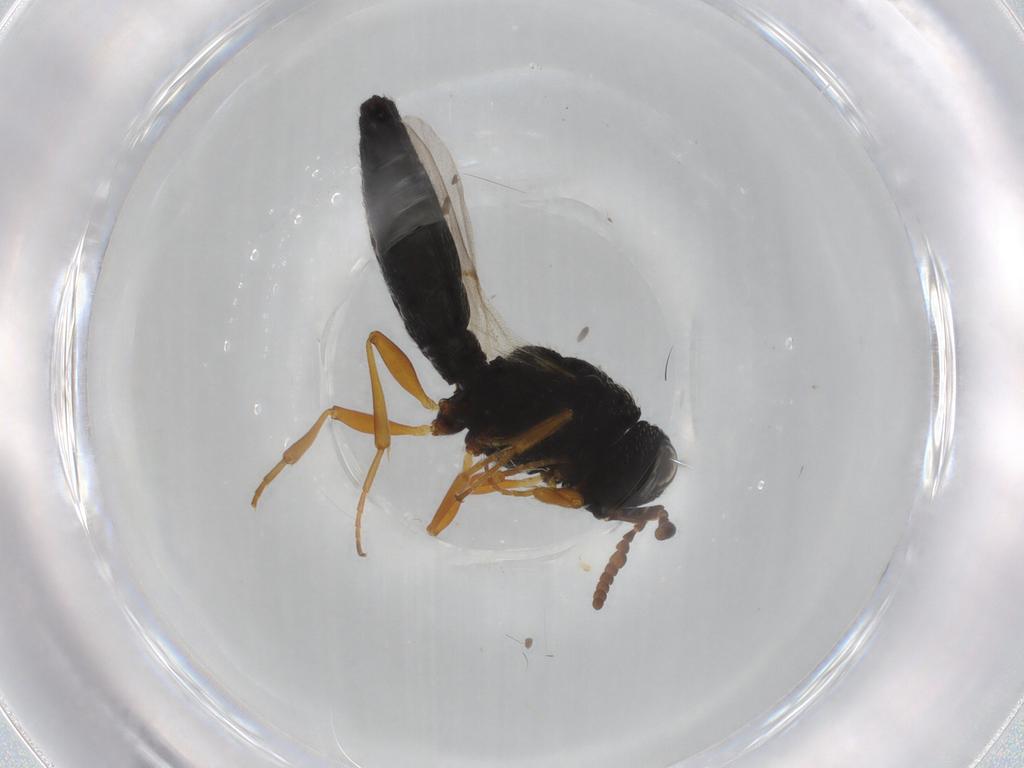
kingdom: Animalia
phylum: Arthropoda
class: Insecta
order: Hymenoptera
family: Scelionidae
